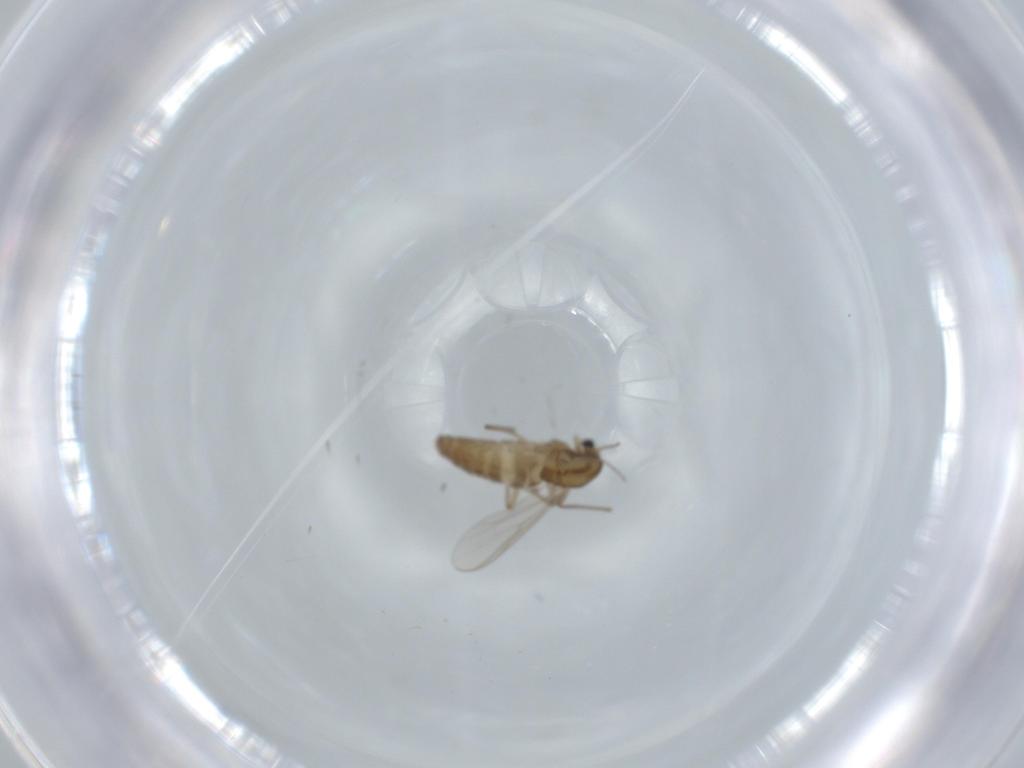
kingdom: Animalia
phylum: Arthropoda
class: Insecta
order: Diptera
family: Chironomidae
